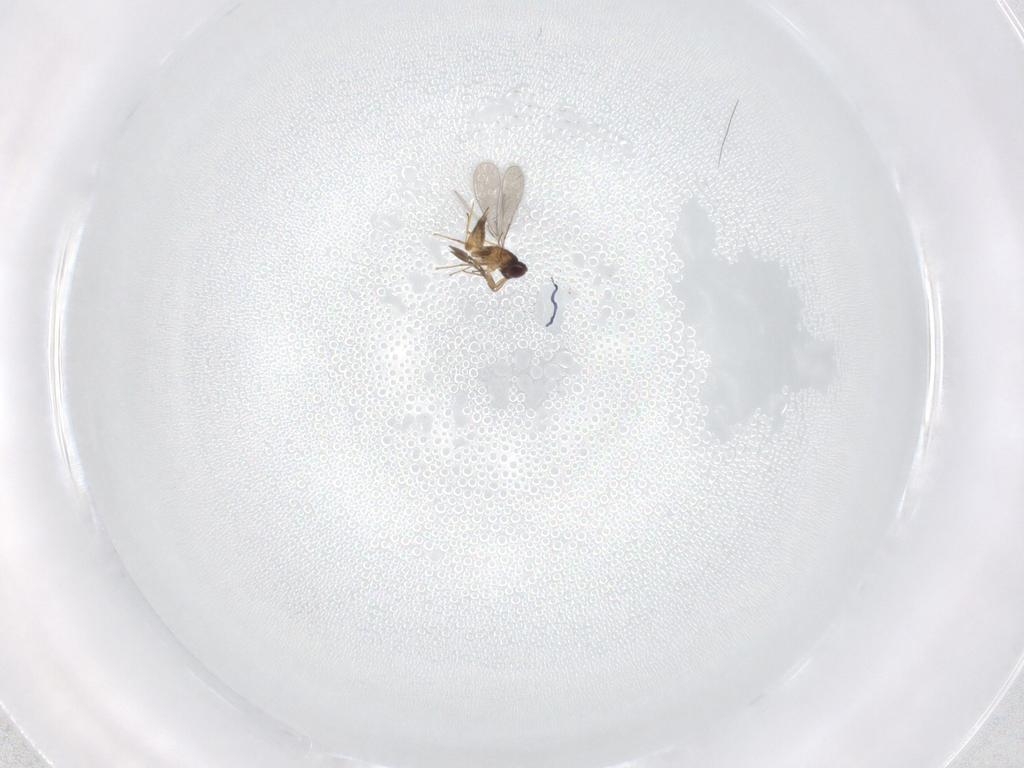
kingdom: Animalia
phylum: Arthropoda
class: Insecta
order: Hymenoptera
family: Mymaridae
